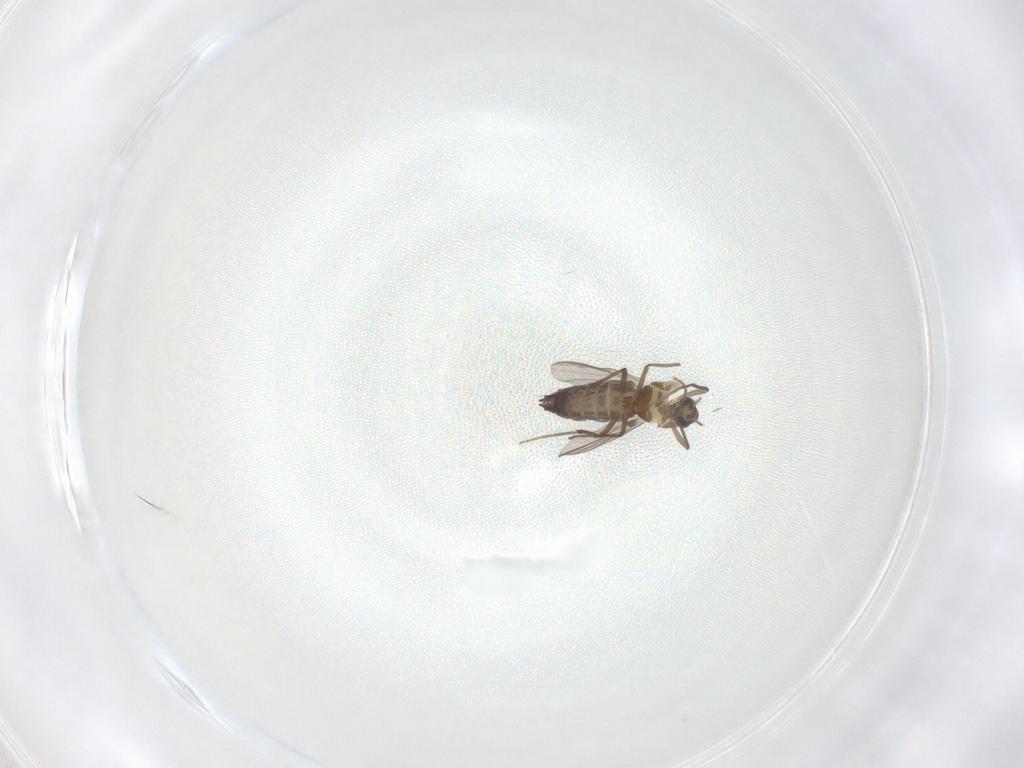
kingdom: Animalia
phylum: Arthropoda
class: Insecta
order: Diptera
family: Chironomidae
